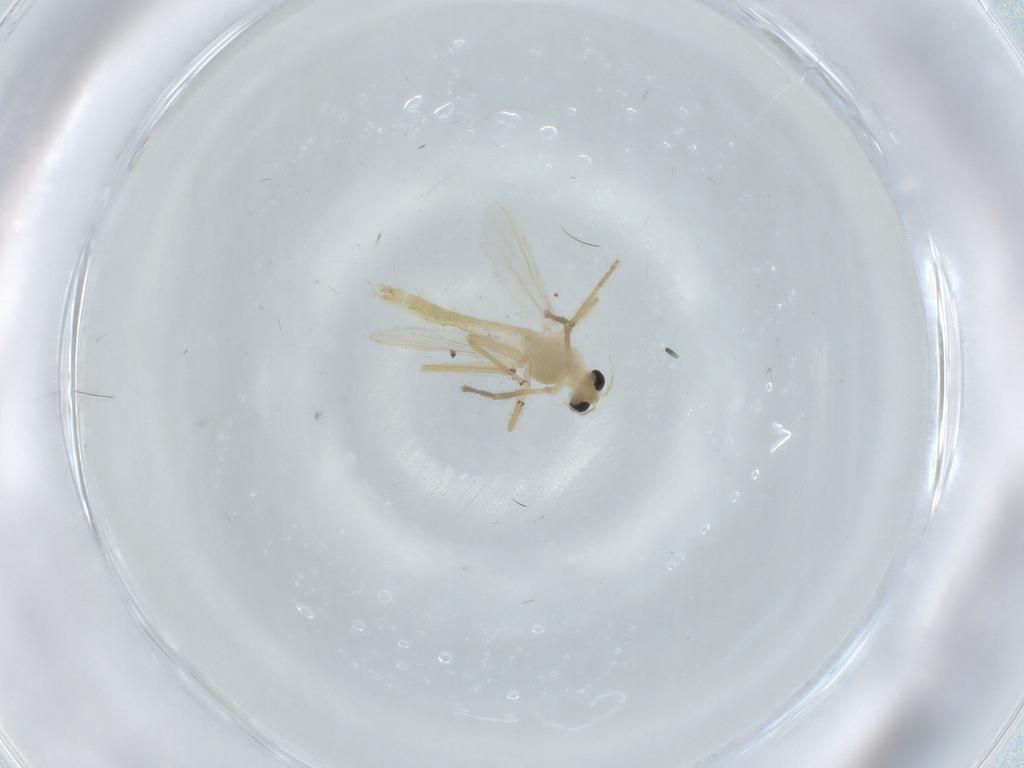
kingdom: Animalia
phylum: Arthropoda
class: Insecta
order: Diptera
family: Chironomidae
